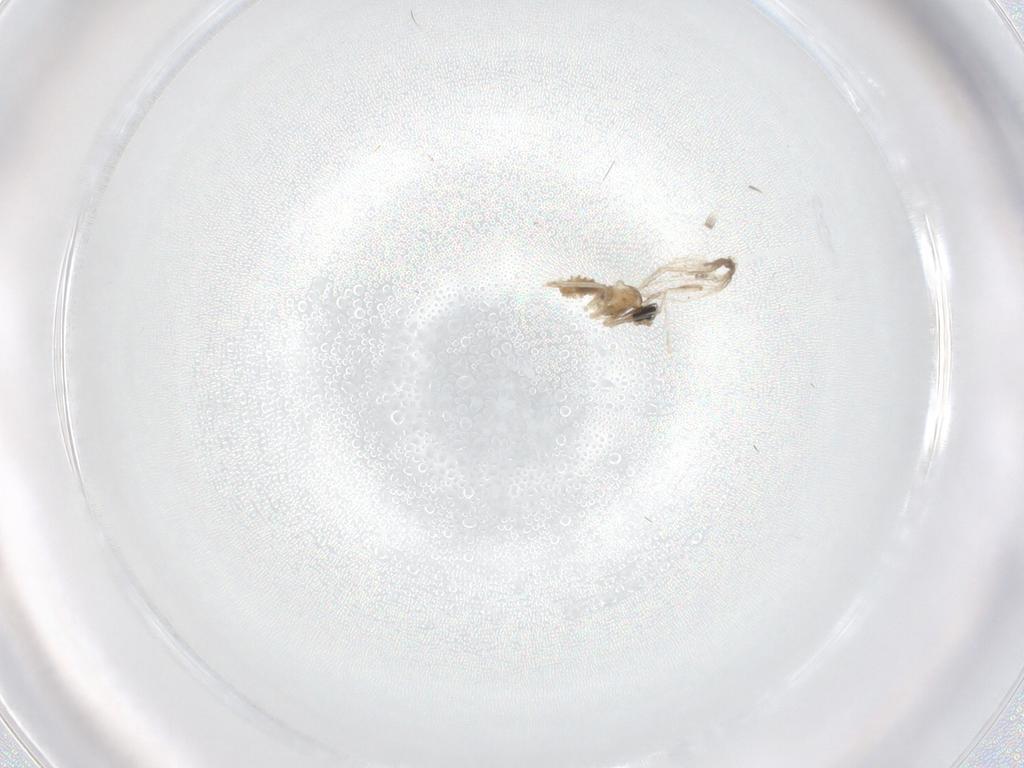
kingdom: Animalia
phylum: Arthropoda
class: Insecta
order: Diptera
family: Cecidomyiidae
